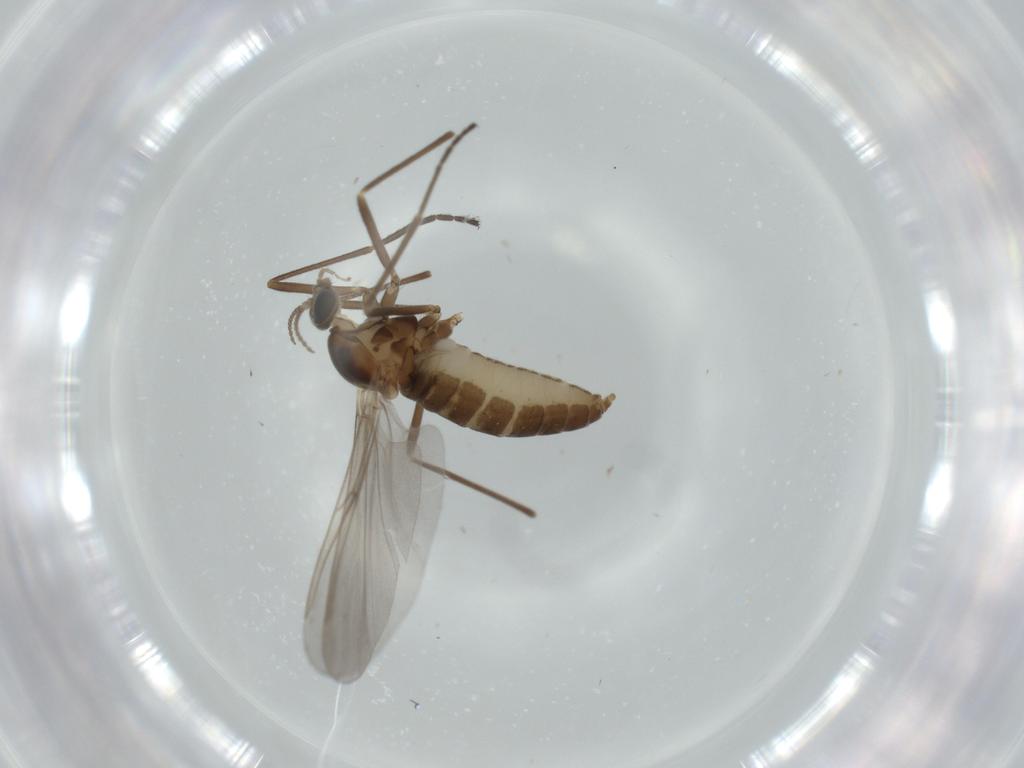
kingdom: Animalia
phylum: Arthropoda
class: Insecta
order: Diptera
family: Cecidomyiidae
